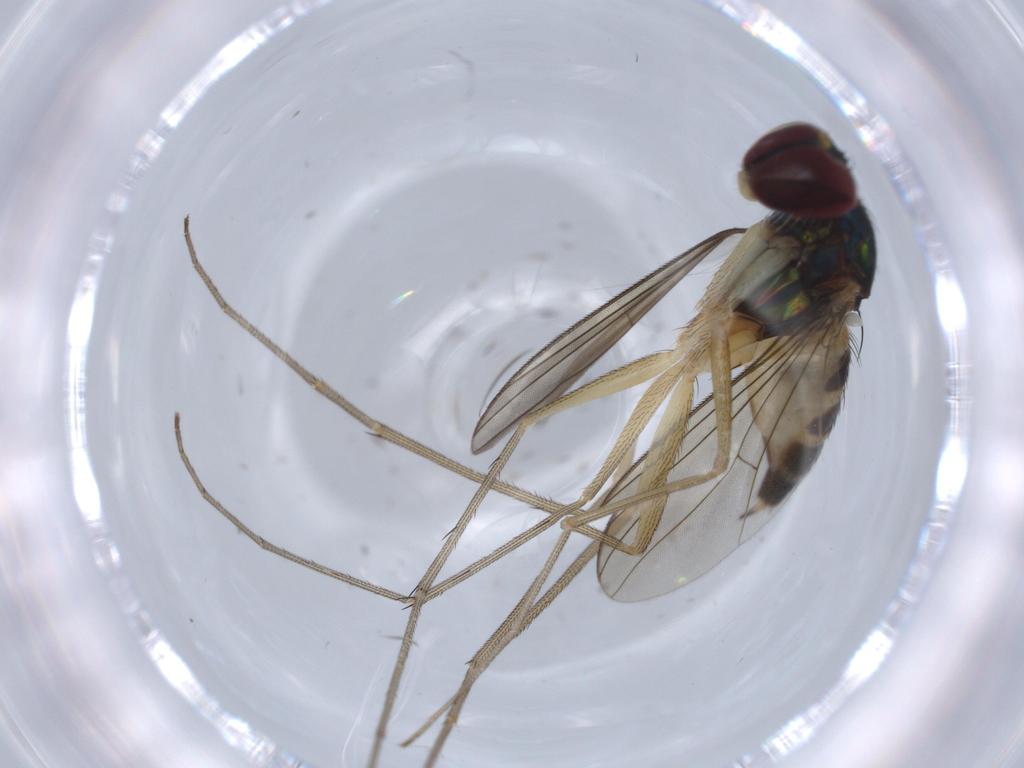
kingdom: Animalia
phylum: Arthropoda
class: Insecta
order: Diptera
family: Dolichopodidae
